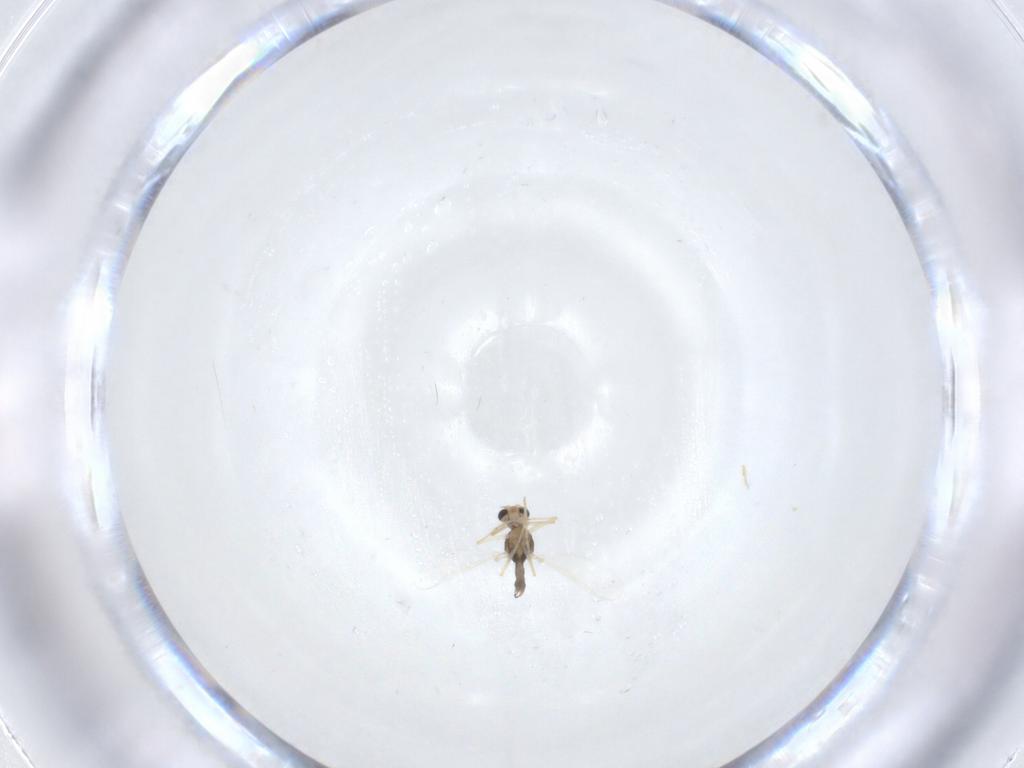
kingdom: Animalia
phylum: Arthropoda
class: Insecta
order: Diptera
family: Chironomidae
